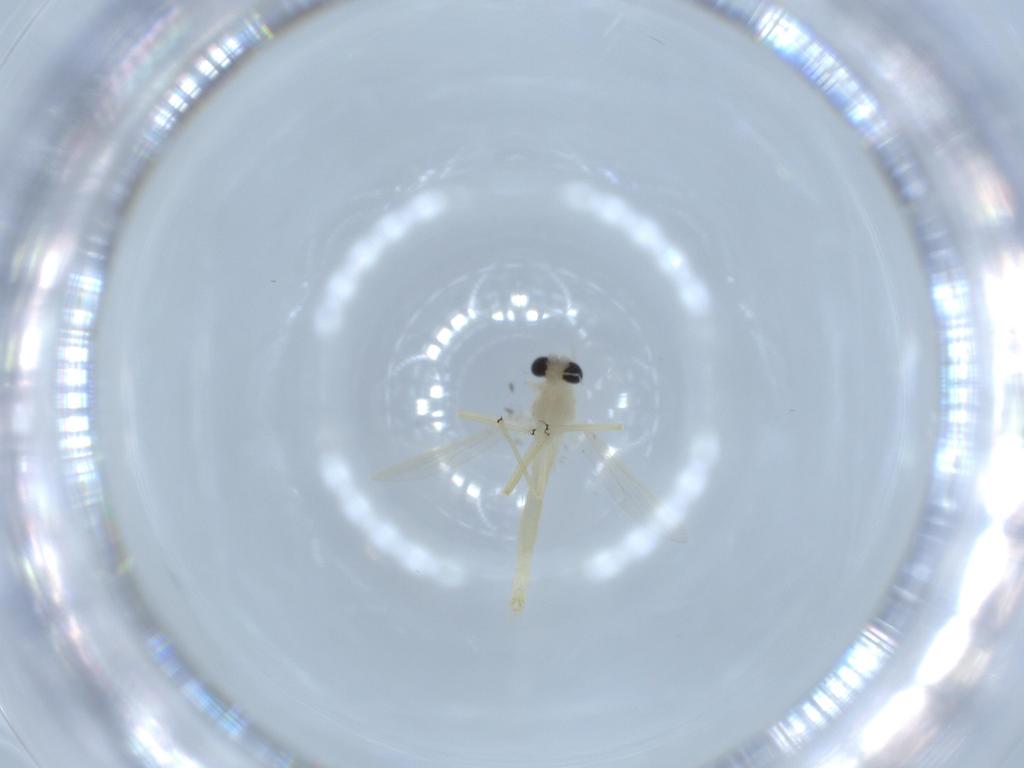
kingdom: Animalia
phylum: Arthropoda
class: Insecta
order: Diptera
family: Chironomidae
